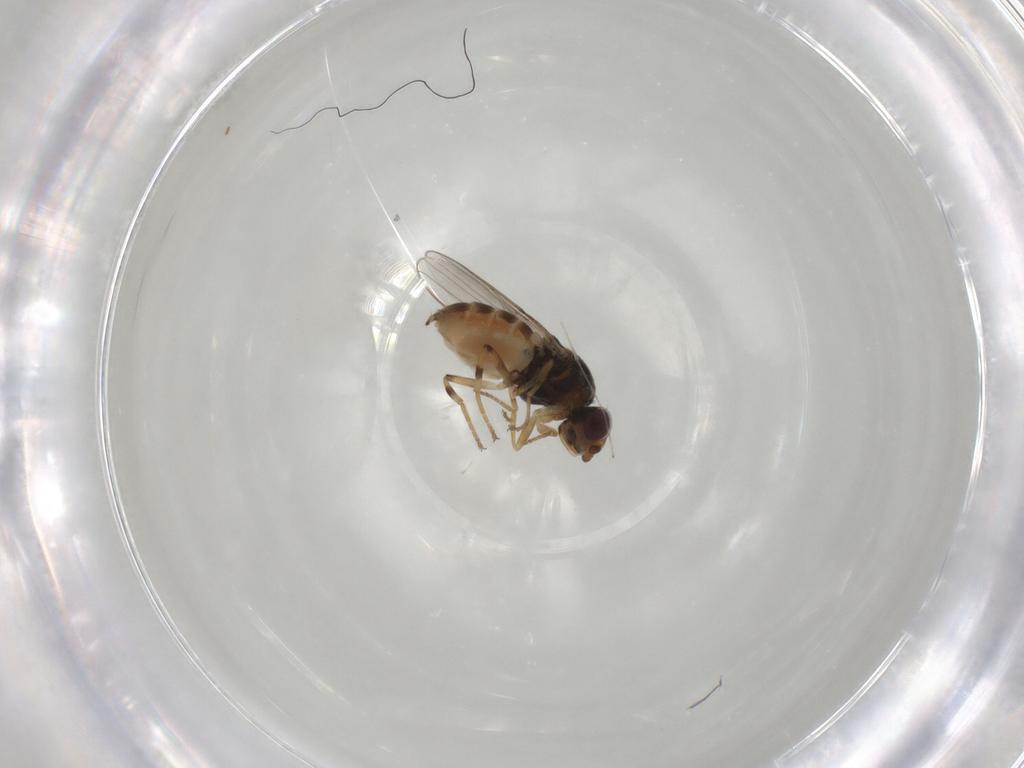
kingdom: Animalia
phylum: Arthropoda
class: Insecta
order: Diptera
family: Chloropidae
